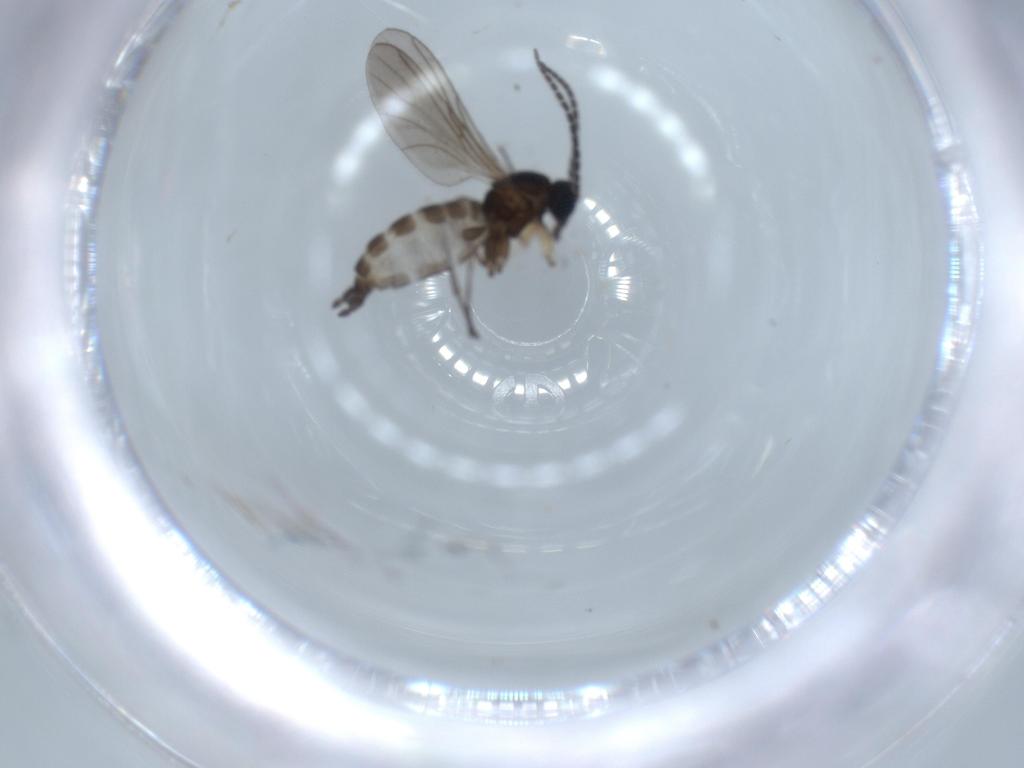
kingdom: Animalia
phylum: Arthropoda
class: Insecta
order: Diptera
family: Sciaridae
